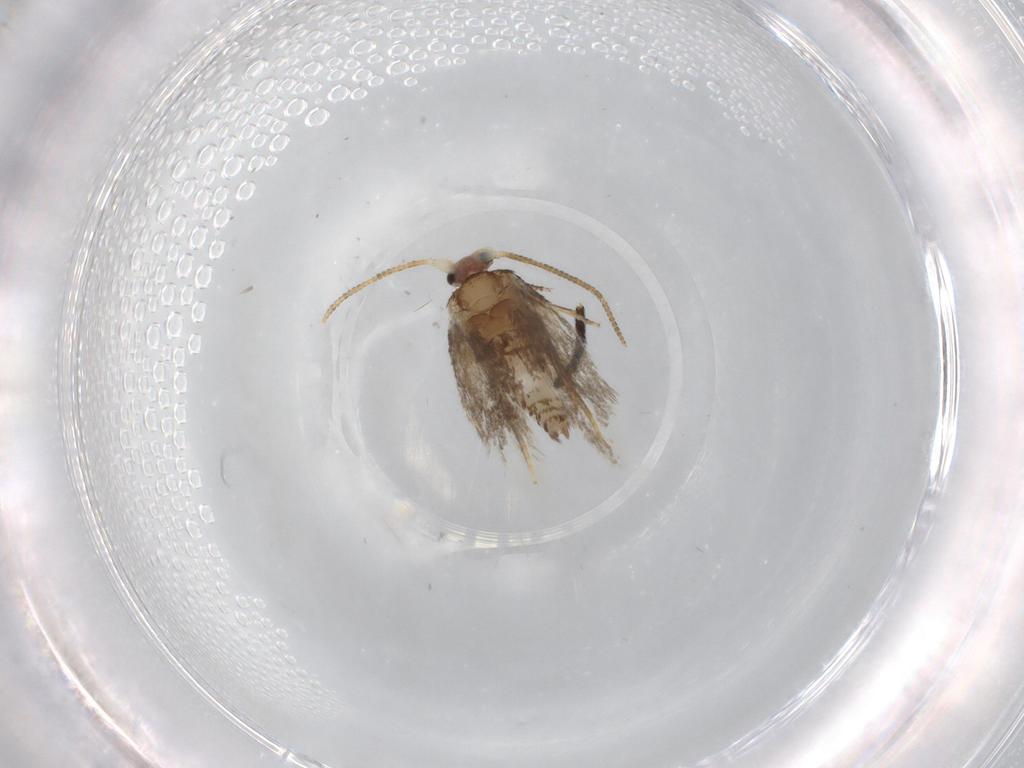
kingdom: Animalia
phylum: Arthropoda
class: Insecta
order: Lepidoptera
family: Nepticulidae
